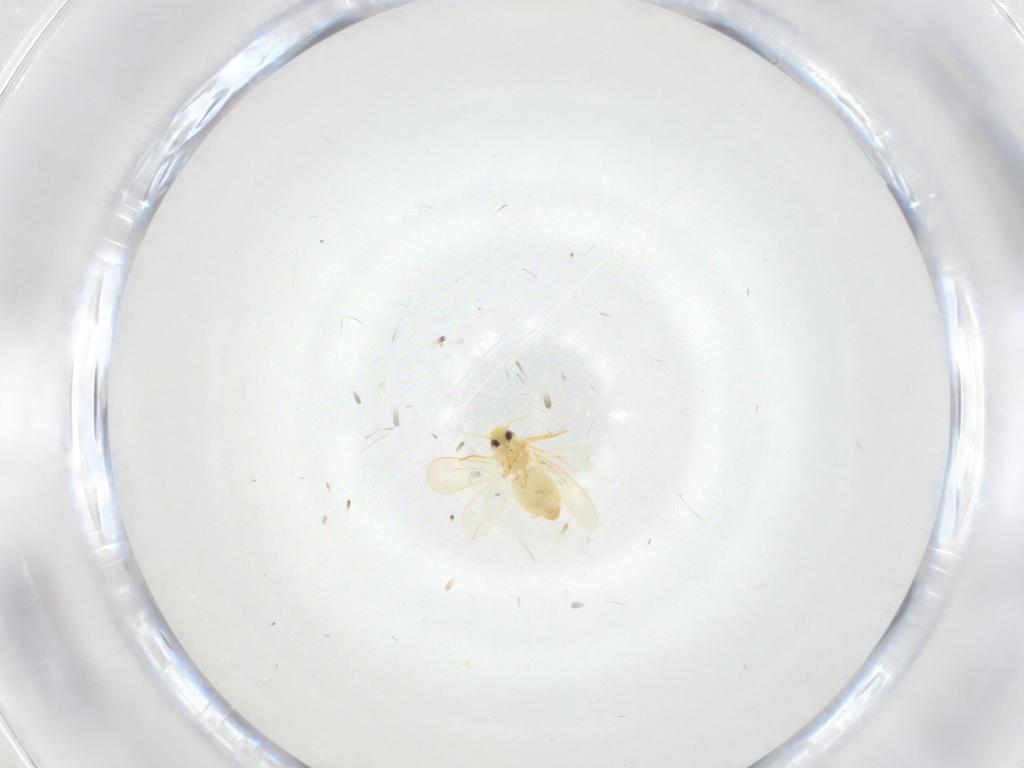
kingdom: Animalia
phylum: Arthropoda
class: Insecta
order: Hemiptera
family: Aleyrodidae
